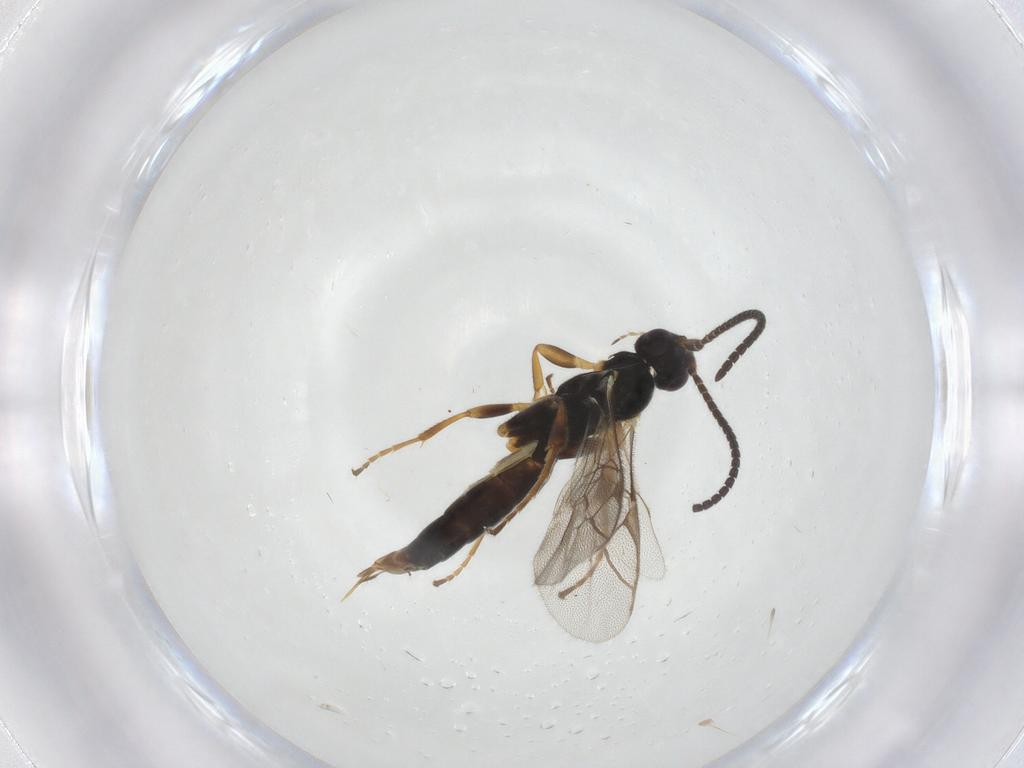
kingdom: Animalia
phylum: Arthropoda
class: Insecta
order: Hymenoptera
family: Ichneumonidae
